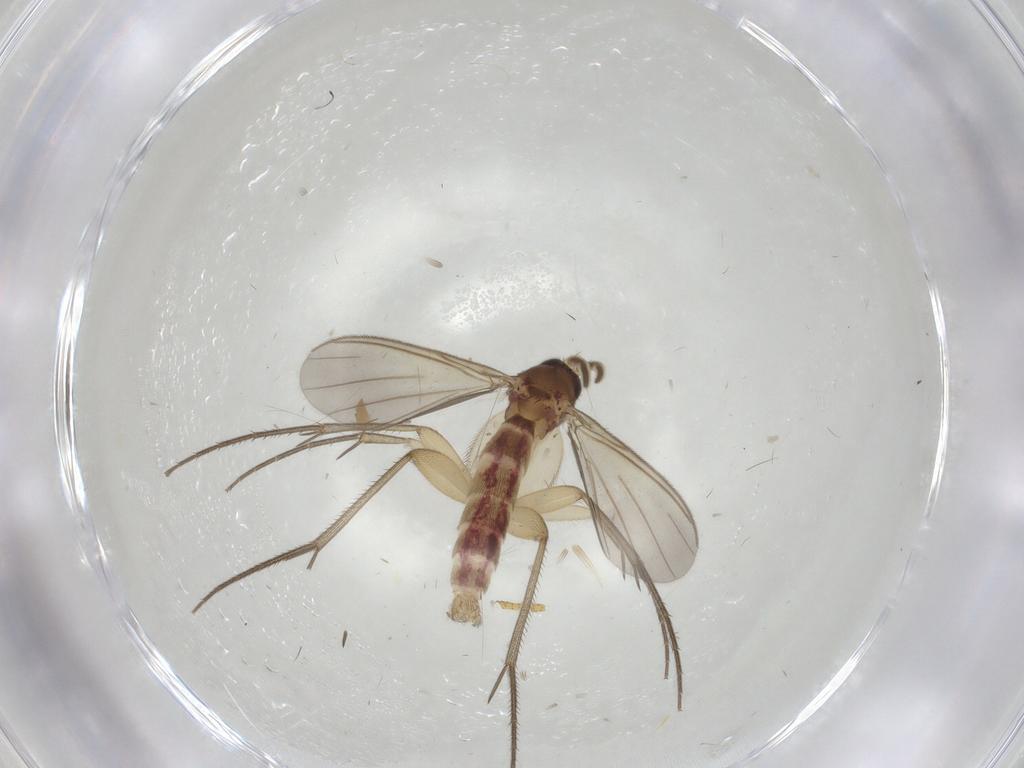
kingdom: Animalia
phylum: Arthropoda
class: Insecta
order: Diptera
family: Mycetophilidae
